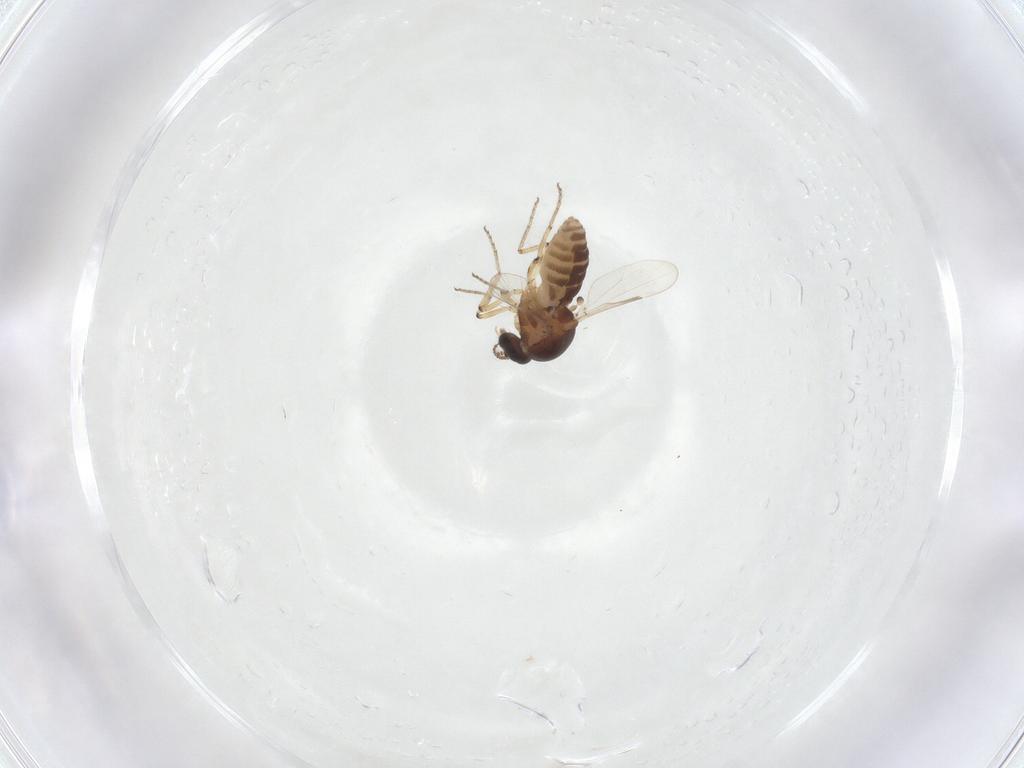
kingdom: Animalia
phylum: Arthropoda
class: Insecta
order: Diptera
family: Ceratopogonidae
